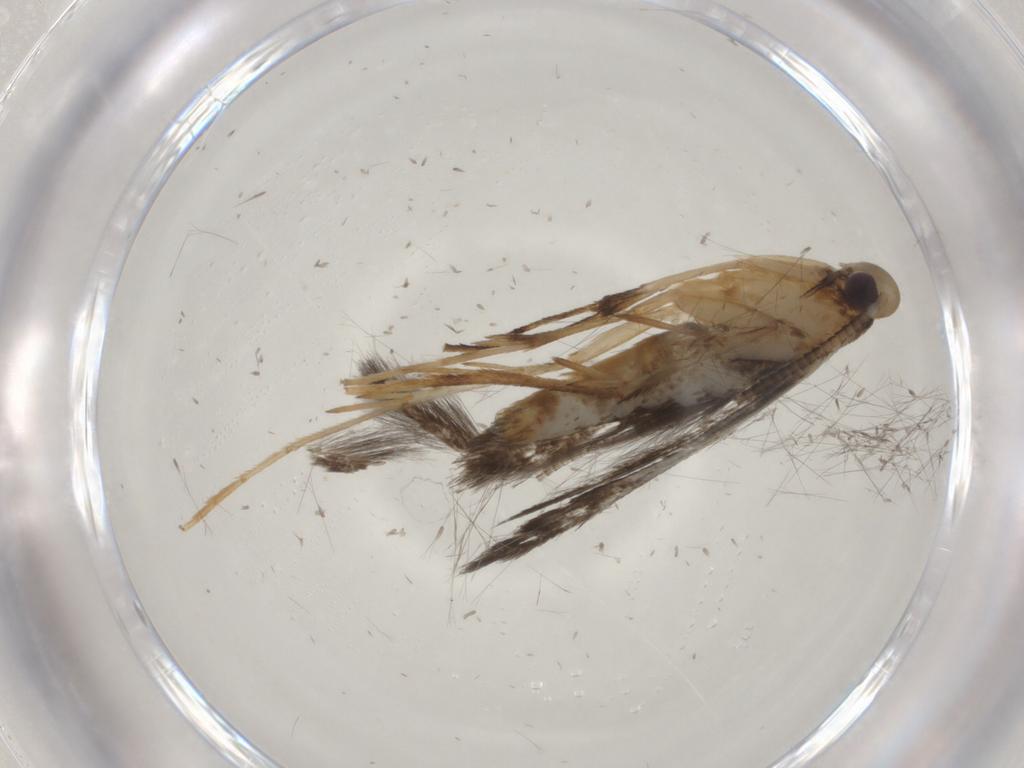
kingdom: Animalia
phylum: Arthropoda
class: Insecta
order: Lepidoptera
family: Gracillariidae
